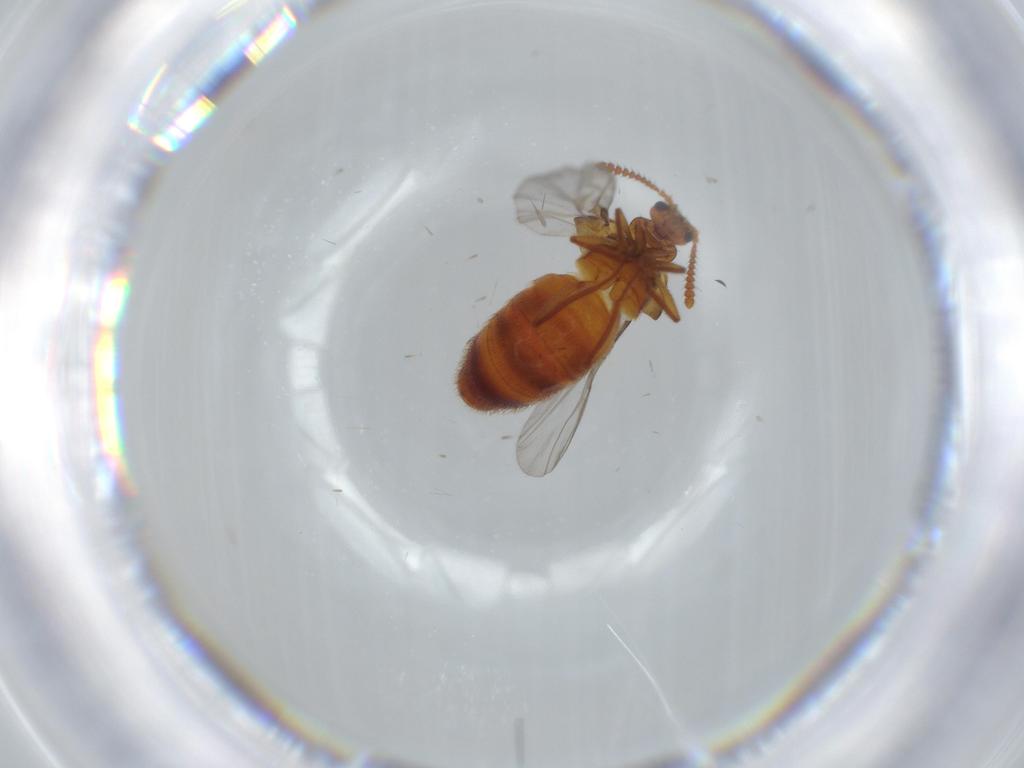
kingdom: Animalia
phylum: Arthropoda
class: Insecta
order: Coleoptera
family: Staphylinidae
